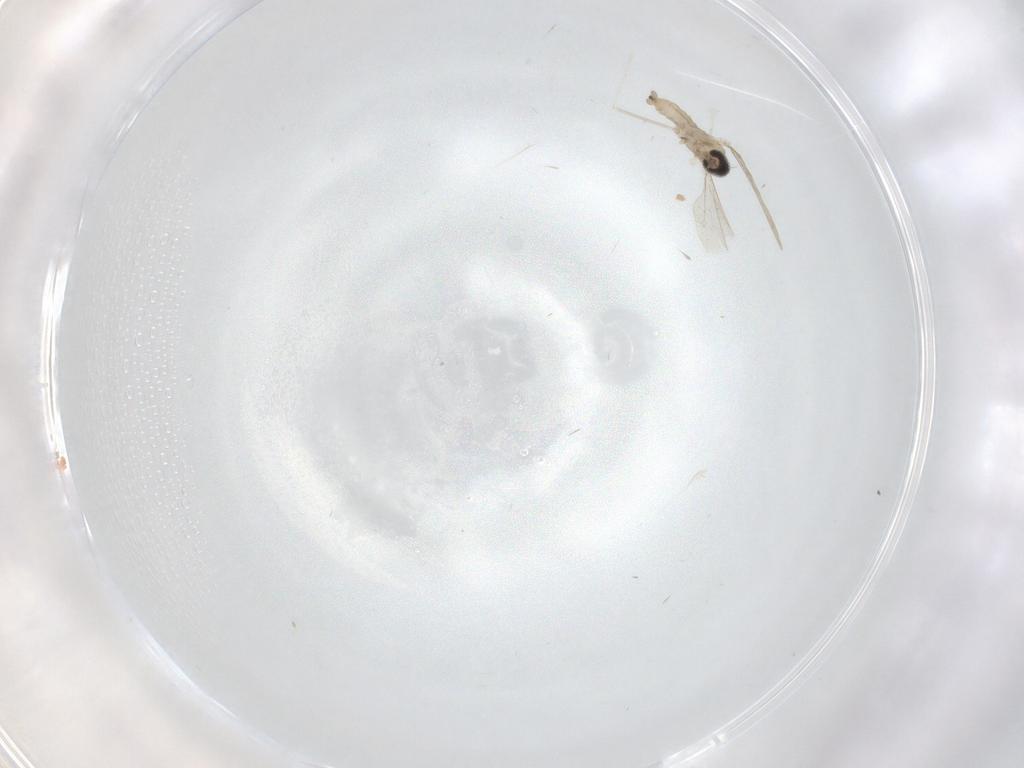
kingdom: Animalia
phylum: Arthropoda
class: Insecta
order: Diptera
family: Cecidomyiidae
